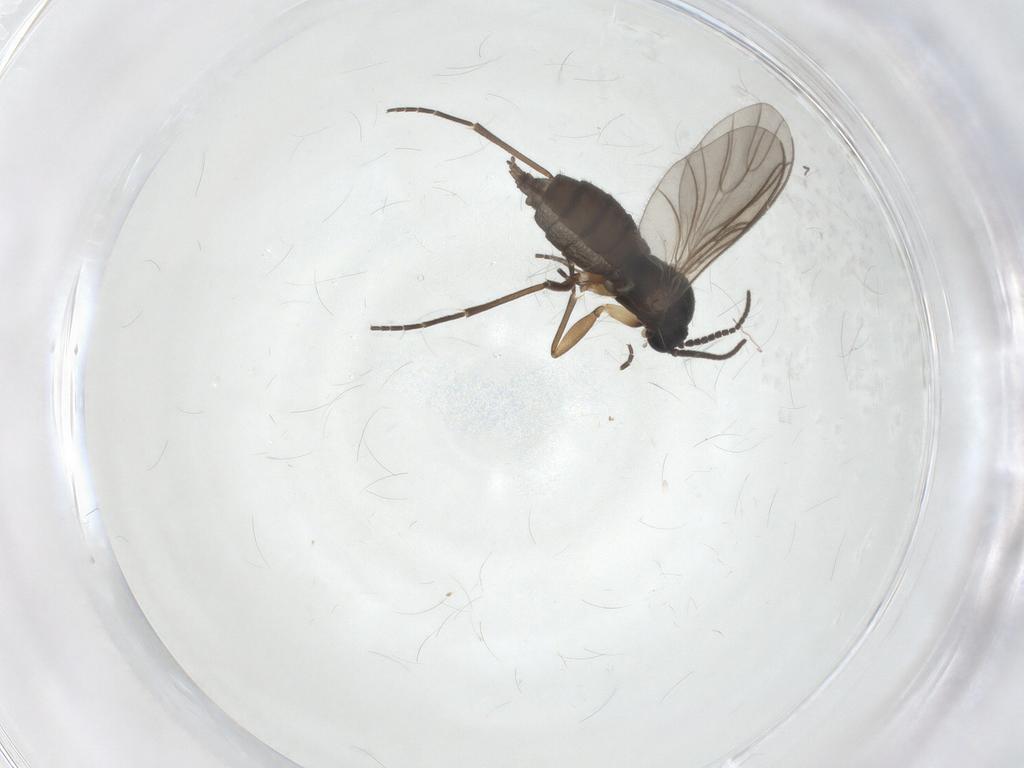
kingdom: Animalia
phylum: Arthropoda
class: Insecta
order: Diptera
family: Sciaridae
